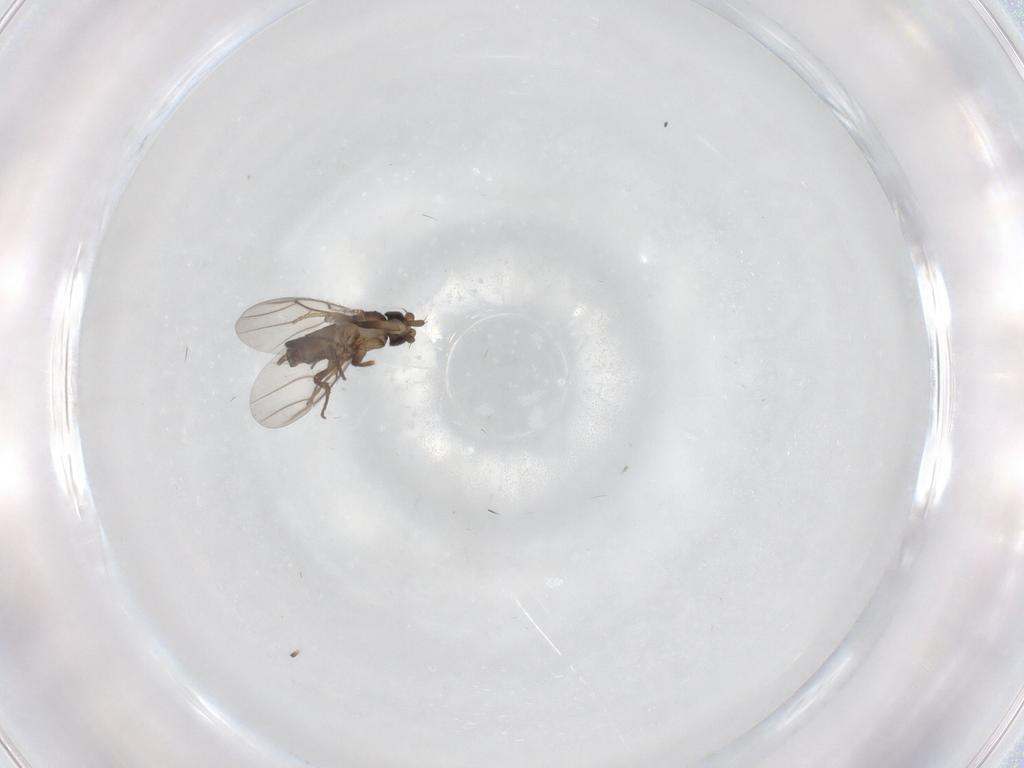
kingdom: Animalia
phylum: Arthropoda
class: Insecta
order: Diptera
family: Phoridae
